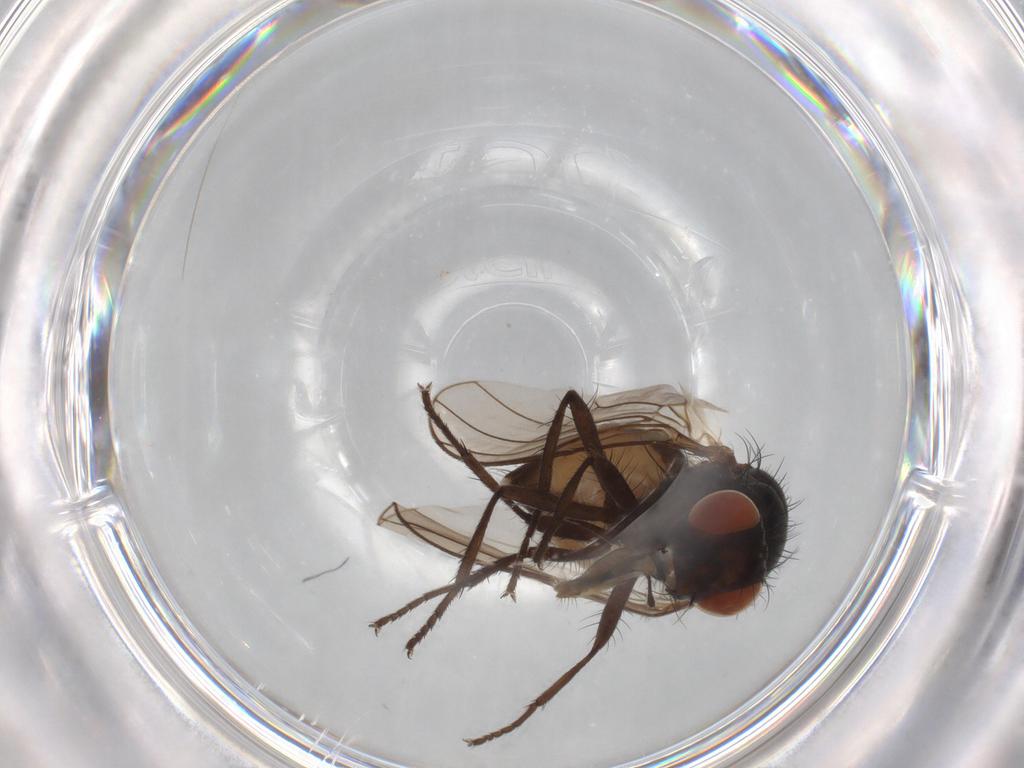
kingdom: Animalia
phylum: Arthropoda
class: Insecta
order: Diptera
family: Anthomyiidae
